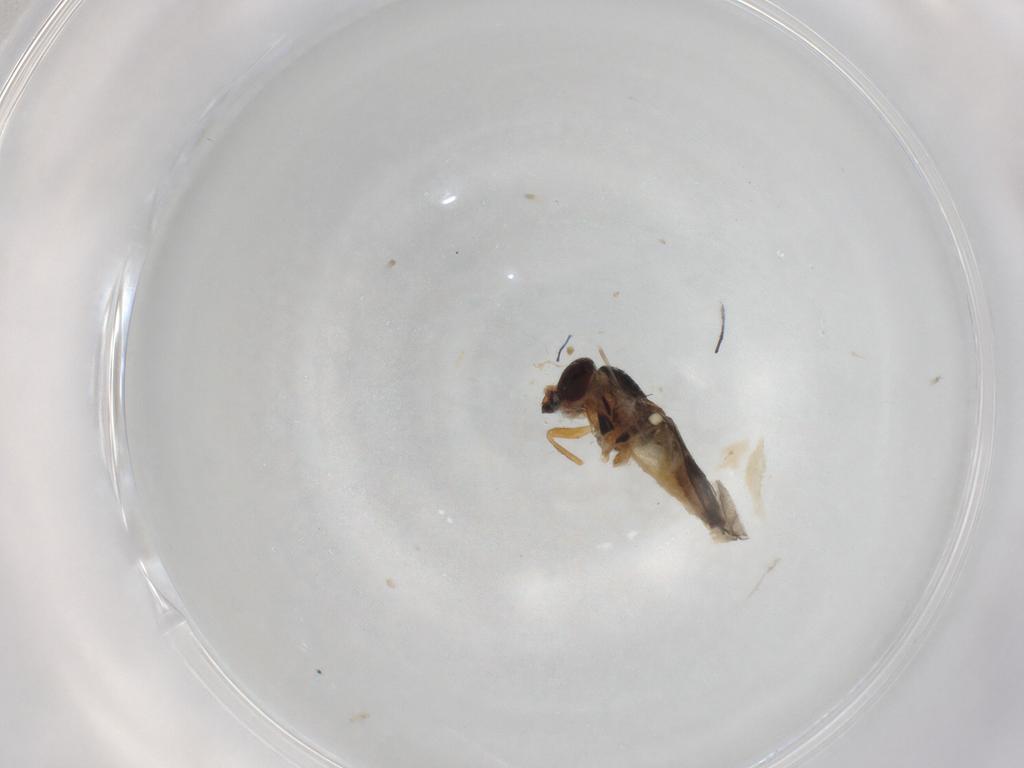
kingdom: Animalia
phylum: Arthropoda
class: Insecta
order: Diptera
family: Chloropidae
